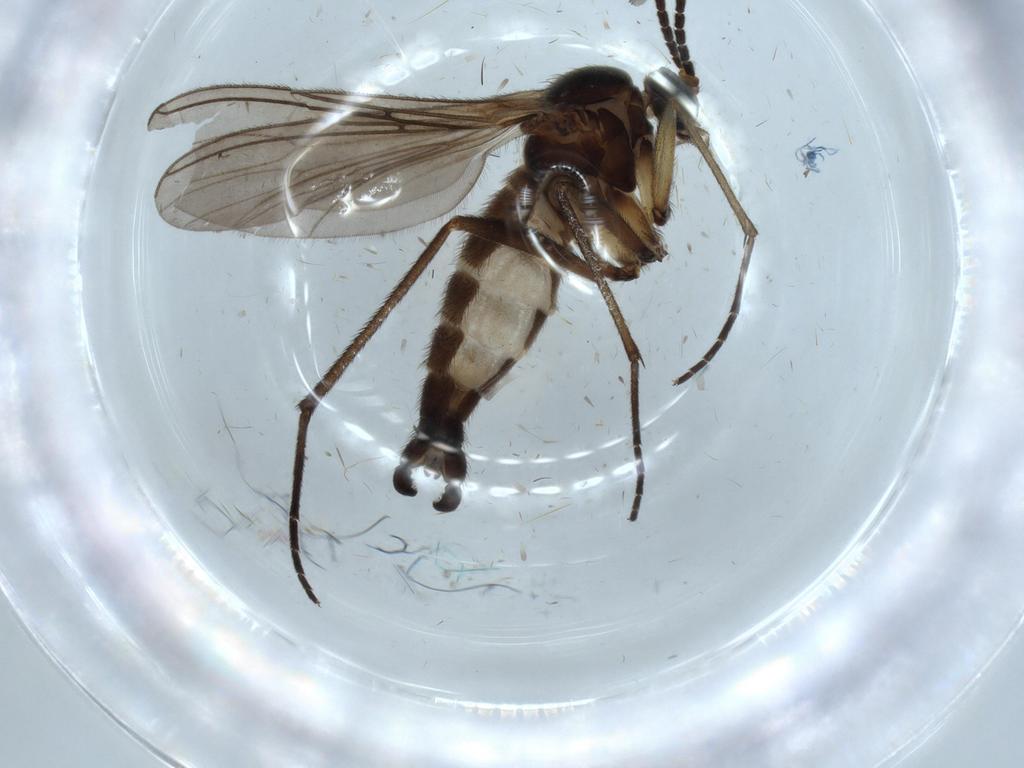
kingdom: Animalia
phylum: Arthropoda
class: Insecta
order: Diptera
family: Sciaridae
